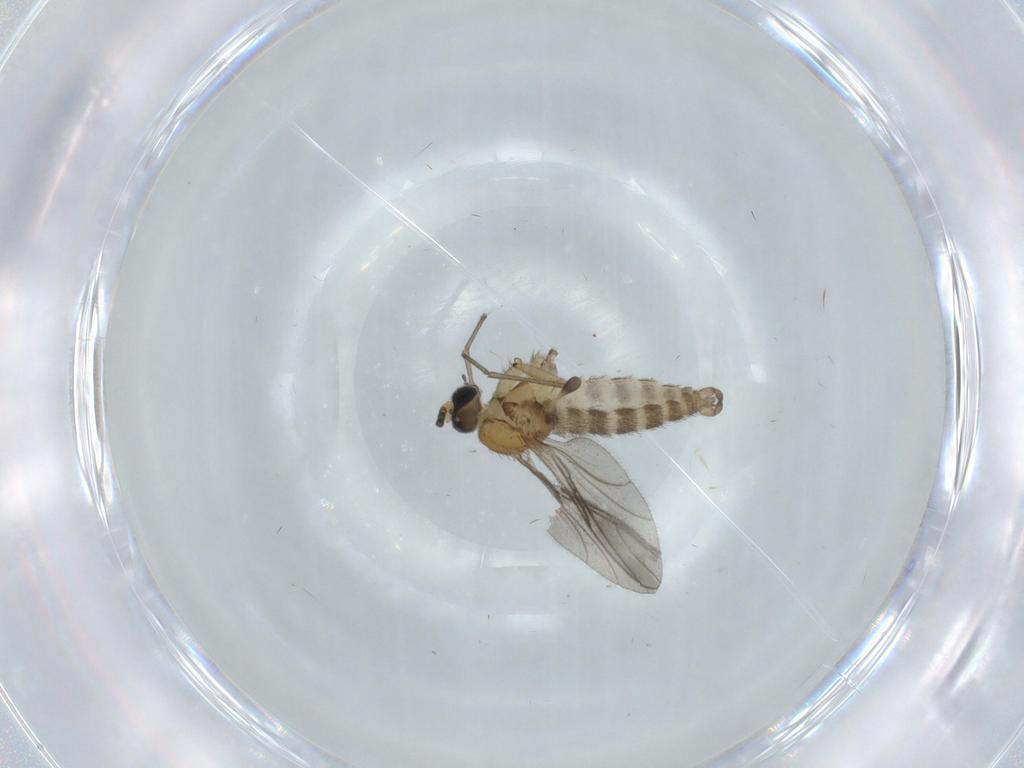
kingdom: Animalia
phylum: Arthropoda
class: Insecta
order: Diptera
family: Sciaridae
